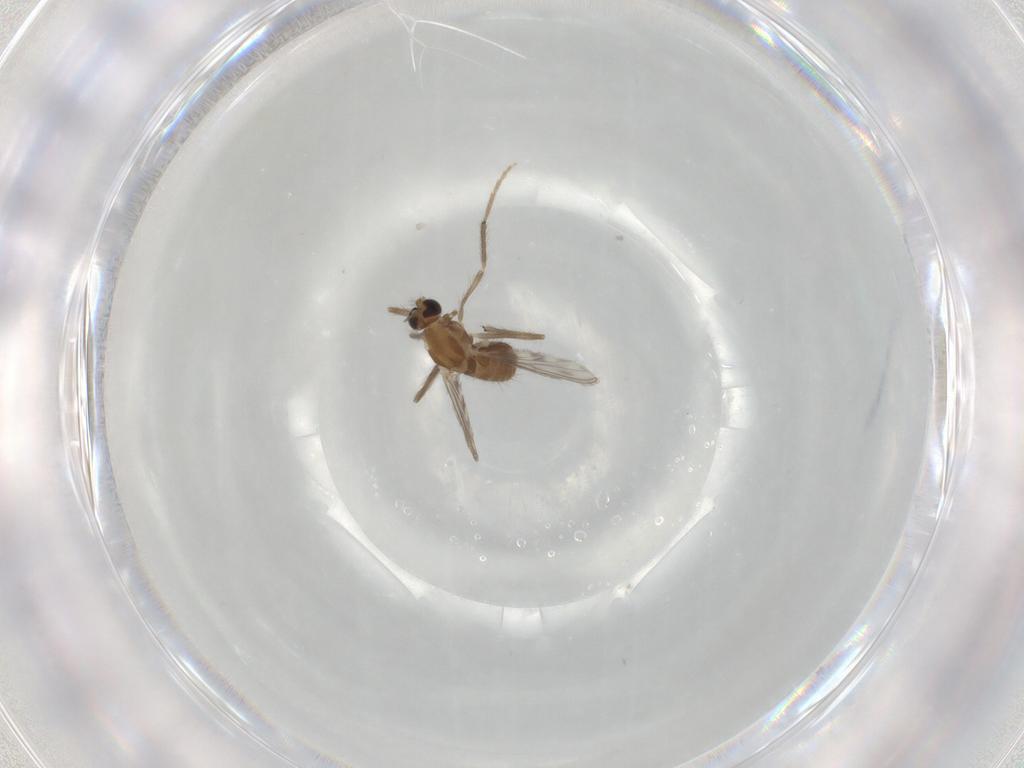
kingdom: Animalia
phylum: Arthropoda
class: Insecta
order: Diptera
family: Chironomidae
